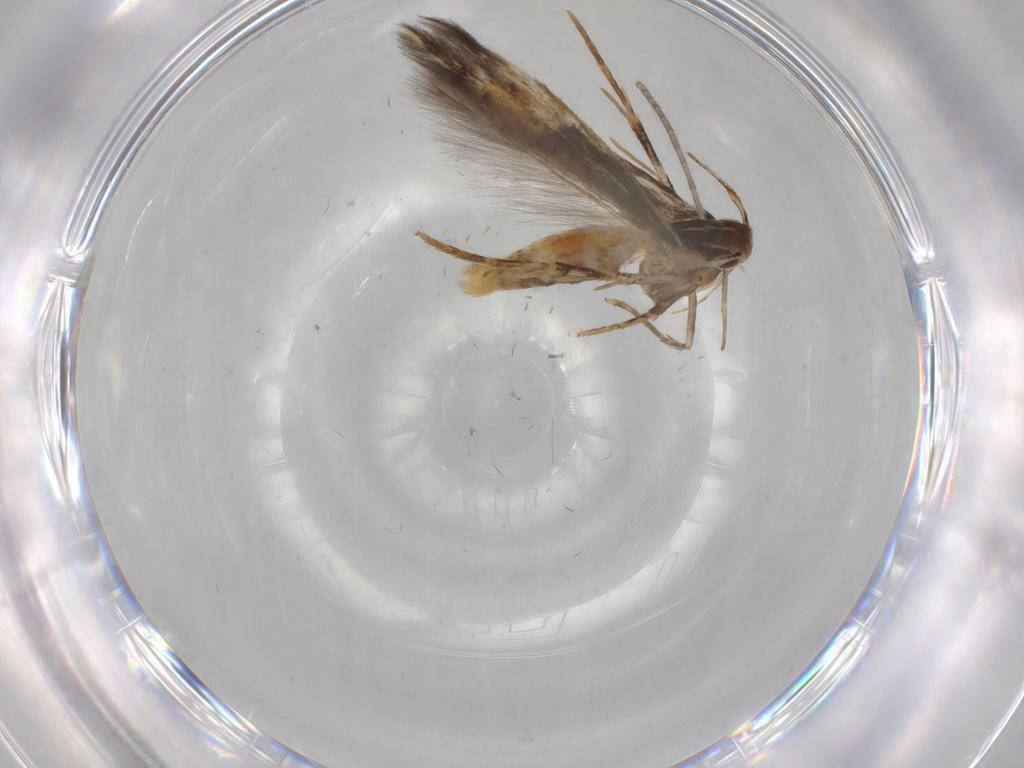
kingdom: Animalia
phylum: Arthropoda
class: Insecta
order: Lepidoptera
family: Cosmopterigidae
